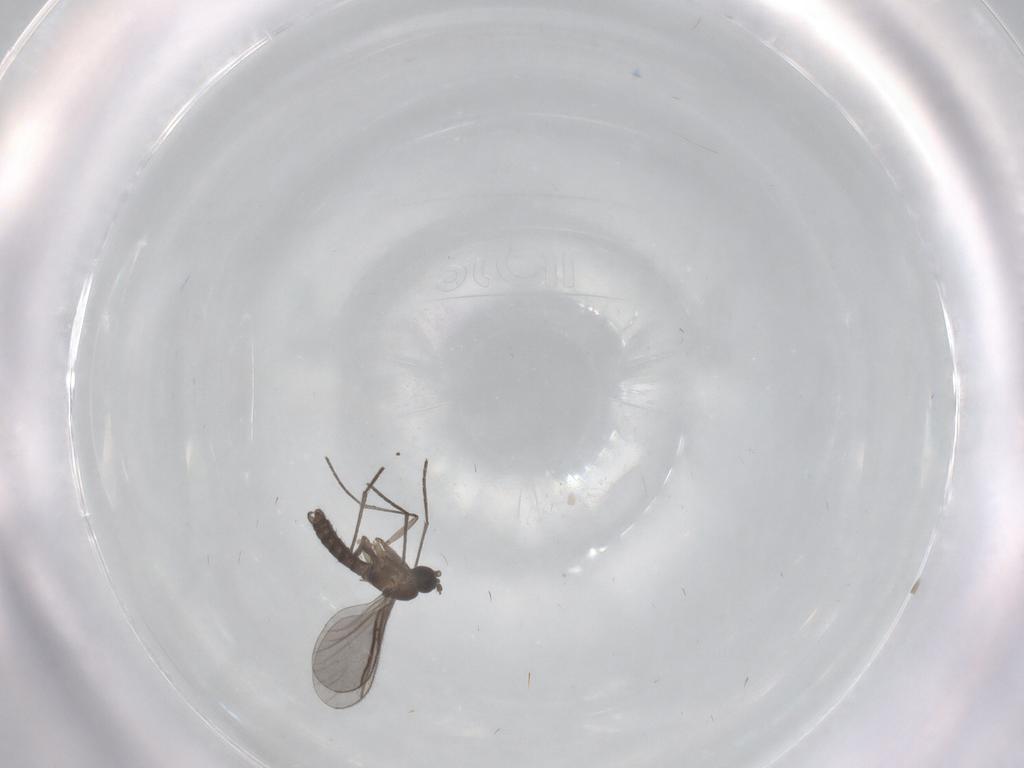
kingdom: Animalia
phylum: Arthropoda
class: Insecta
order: Diptera
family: Sciaridae
